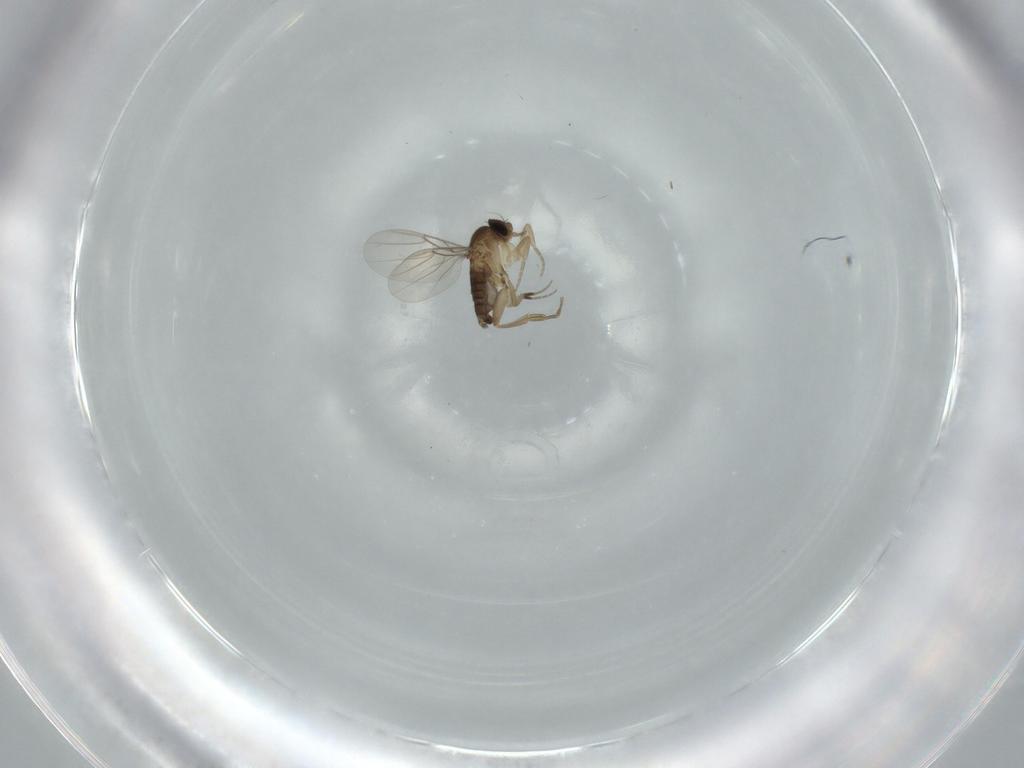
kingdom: Animalia
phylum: Arthropoda
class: Insecta
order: Diptera
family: Phoridae
